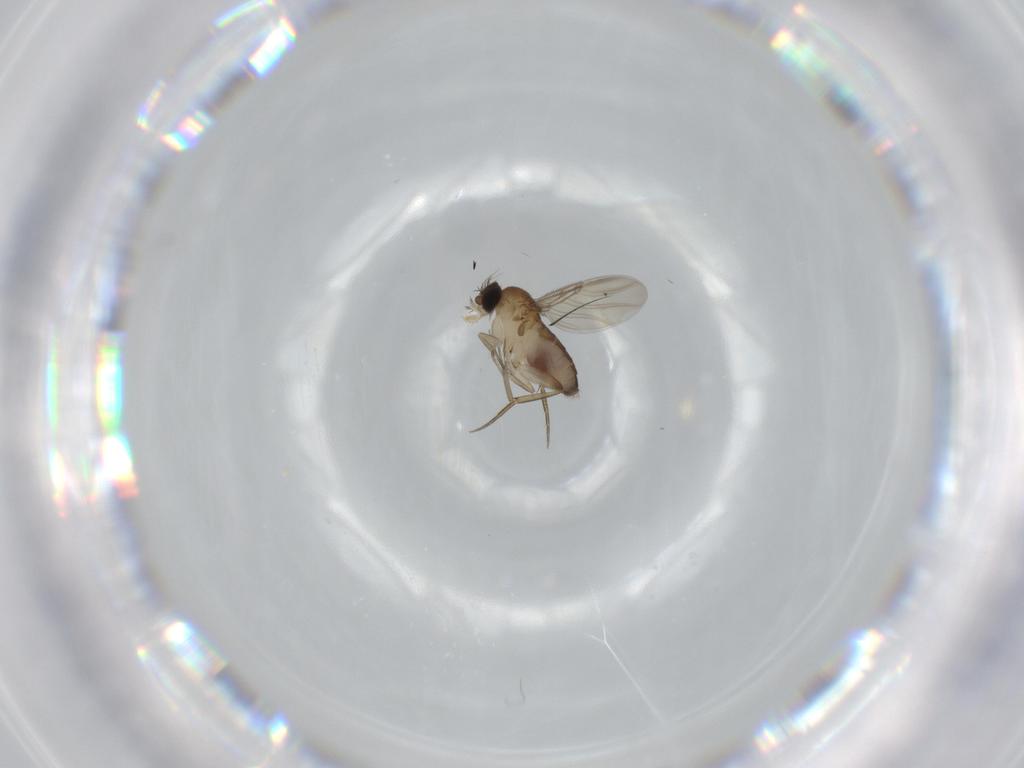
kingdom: Animalia
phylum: Arthropoda
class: Insecta
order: Diptera
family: Phoridae
